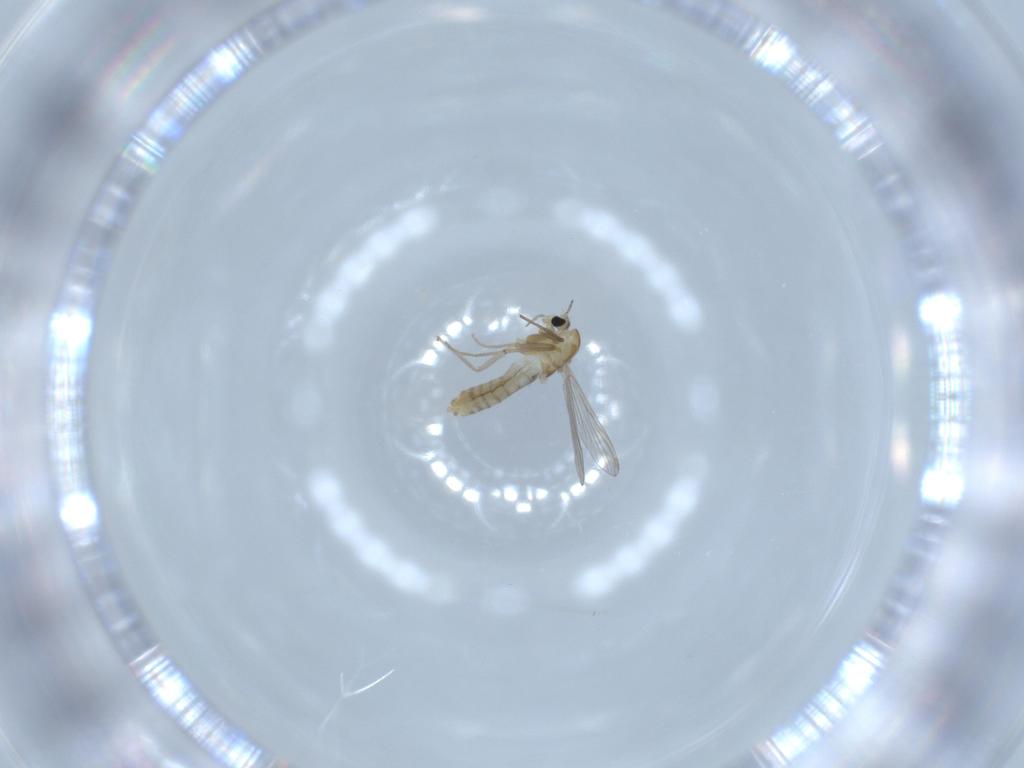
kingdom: Animalia
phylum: Arthropoda
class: Insecta
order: Diptera
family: Chironomidae
